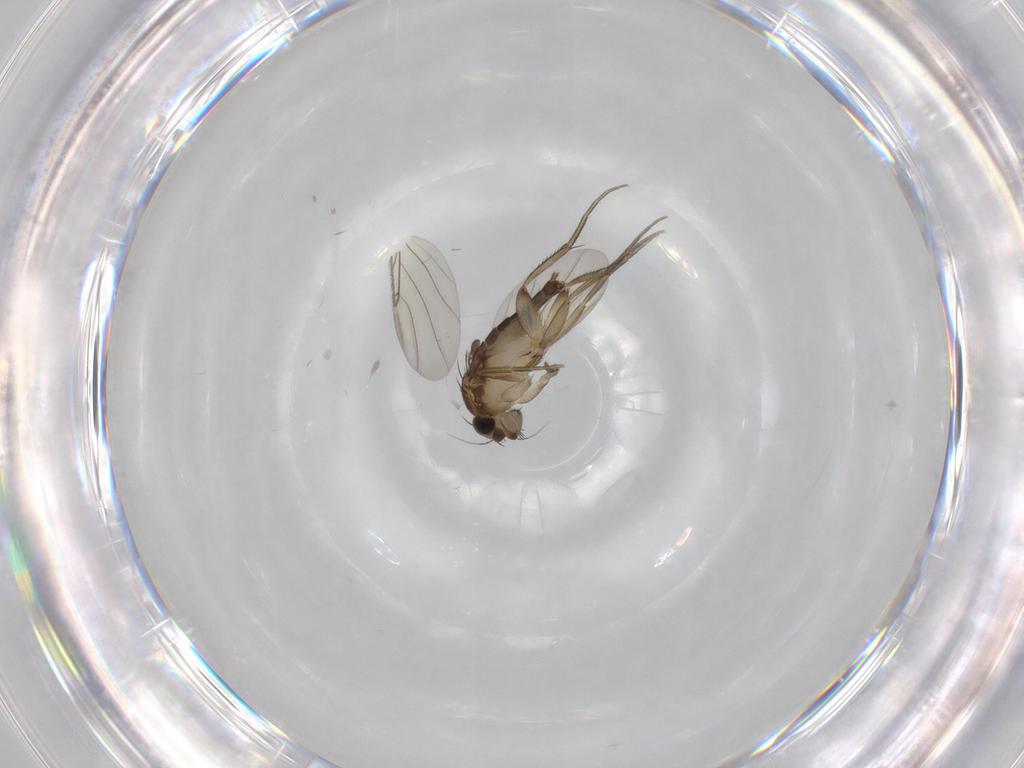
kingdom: Animalia
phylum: Arthropoda
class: Insecta
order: Diptera
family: Phoridae
